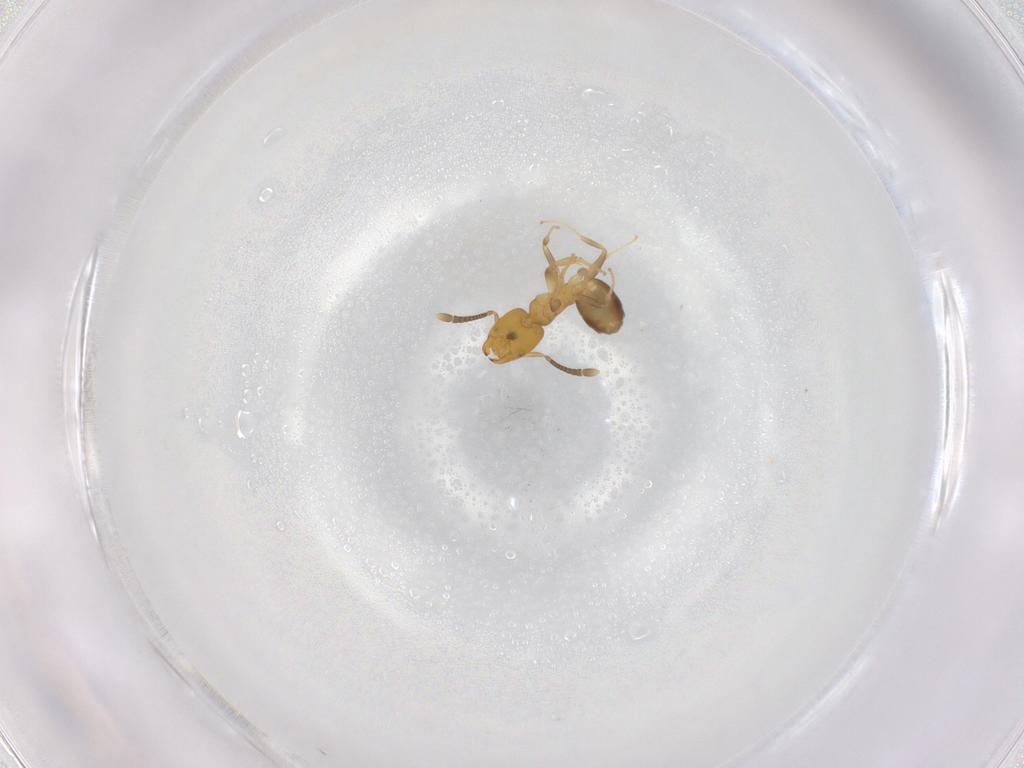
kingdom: Animalia
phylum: Arthropoda
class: Insecta
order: Hymenoptera
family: Formicidae
